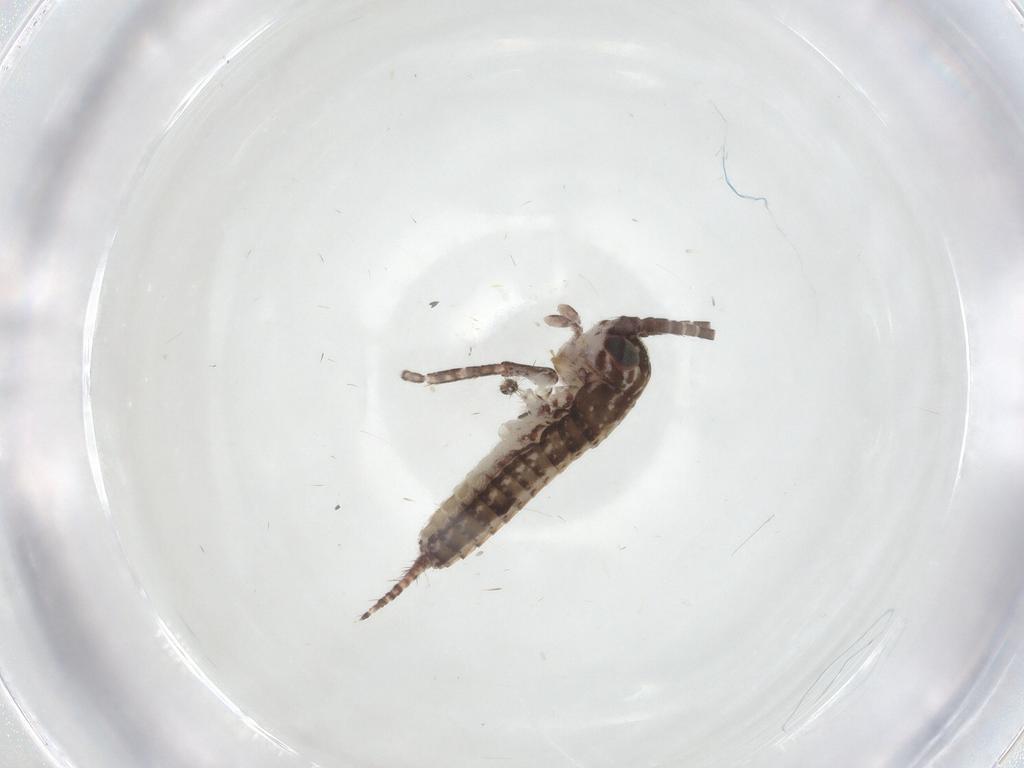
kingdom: Animalia
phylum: Arthropoda
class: Insecta
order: Orthoptera
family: Gryllidae
